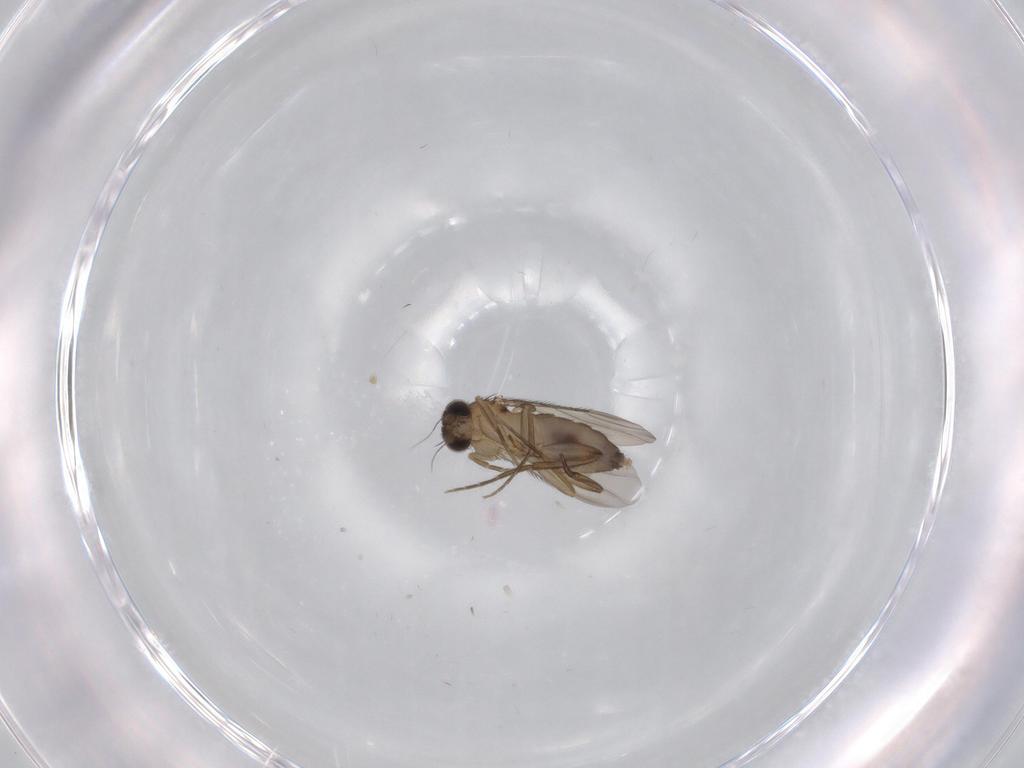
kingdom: Animalia
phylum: Arthropoda
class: Insecta
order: Diptera
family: Phoridae
